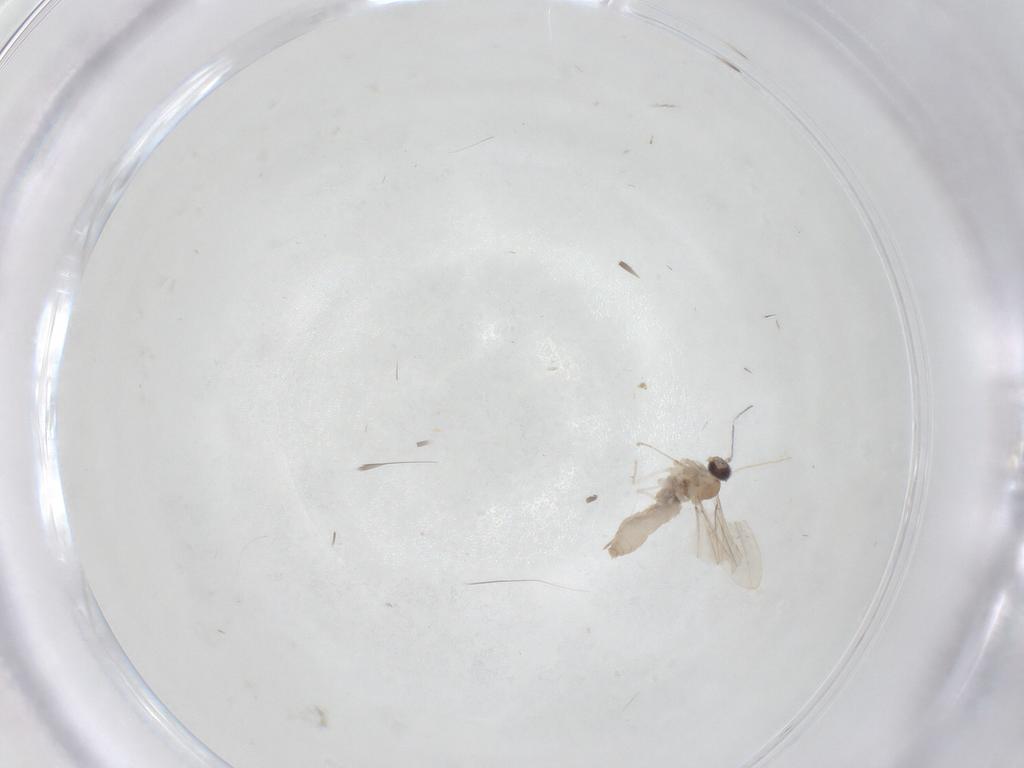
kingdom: Animalia
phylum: Arthropoda
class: Insecta
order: Diptera
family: Cecidomyiidae
